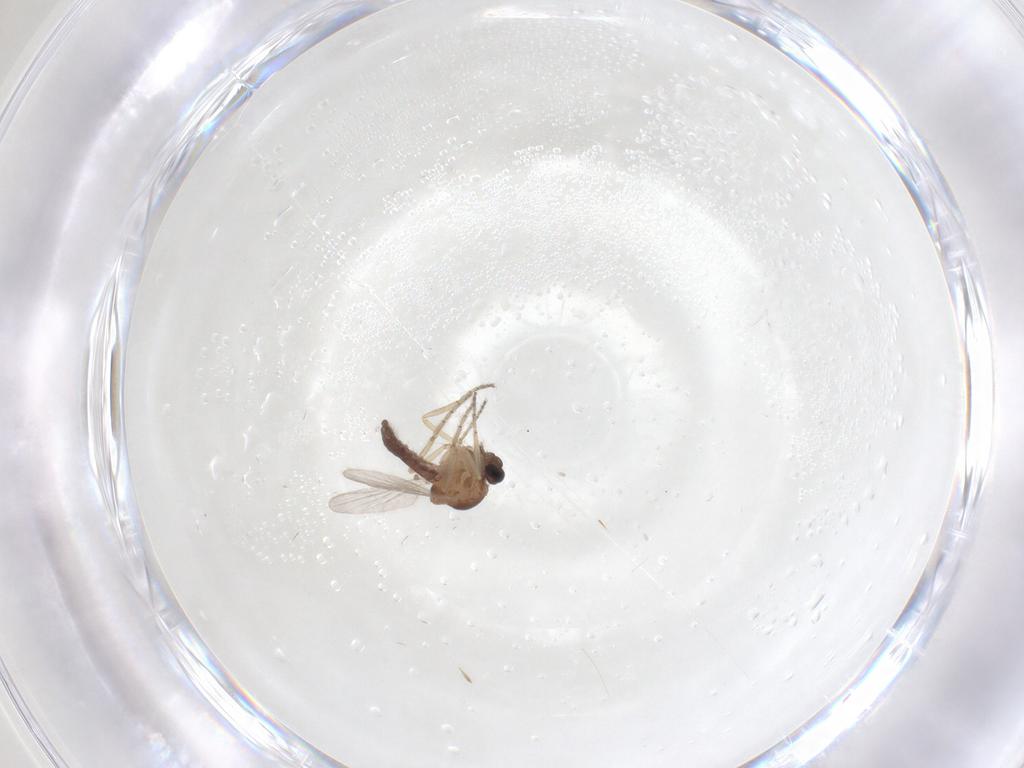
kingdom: Animalia
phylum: Arthropoda
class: Insecta
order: Diptera
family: Ceratopogonidae
